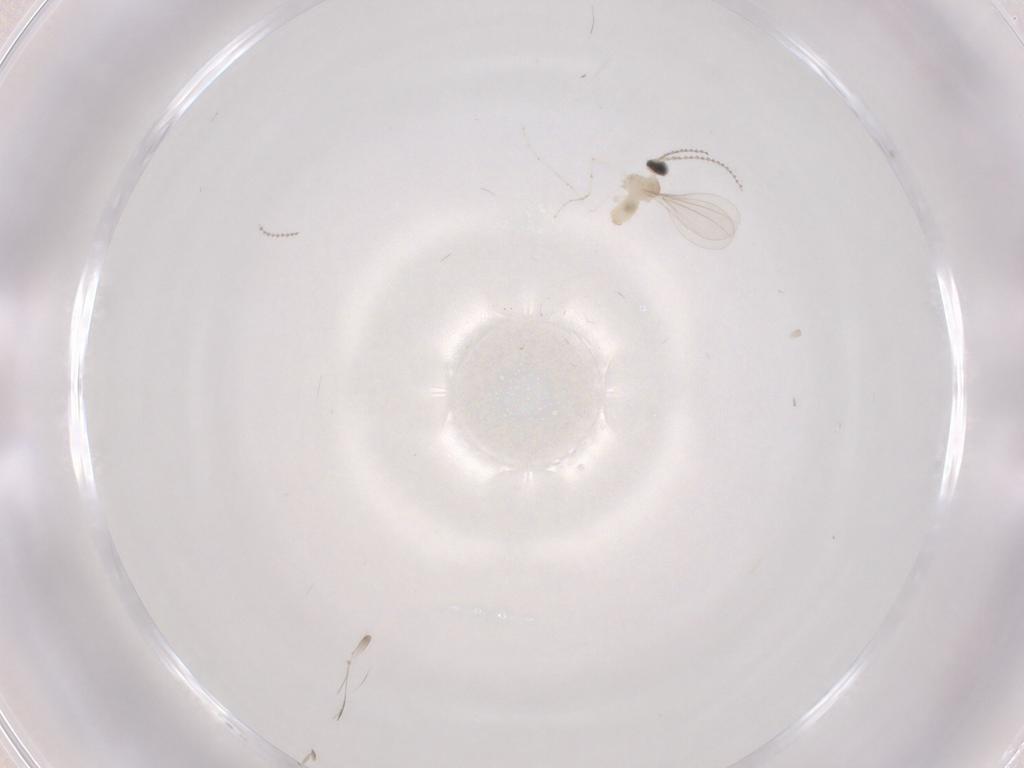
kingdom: Animalia
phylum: Arthropoda
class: Insecta
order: Diptera
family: Cecidomyiidae
